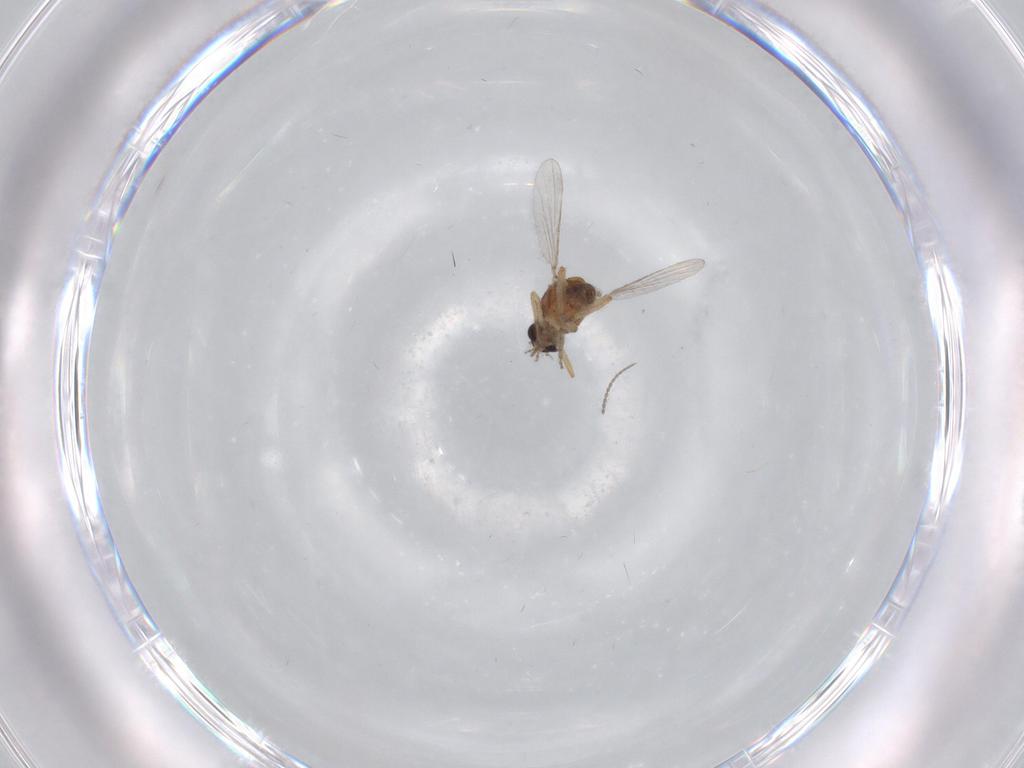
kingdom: Animalia
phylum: Arthropoda
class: Insecta
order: Diptera
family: Ceratopogonidae
